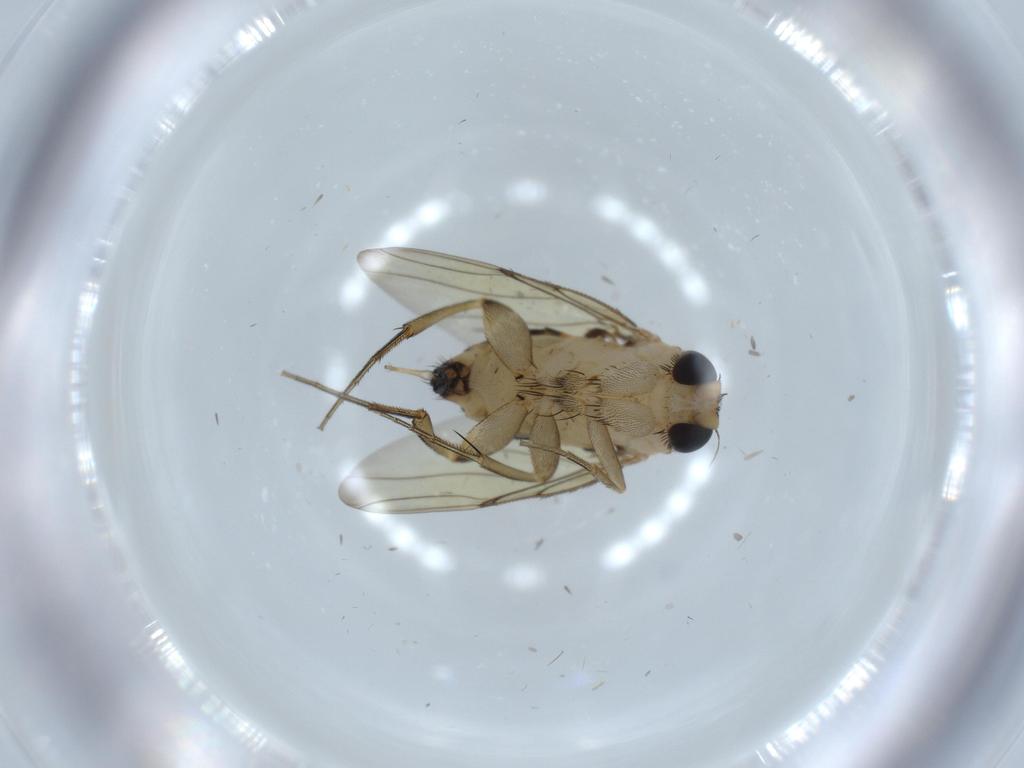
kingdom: Animalia
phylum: Arthropoda
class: Insecta
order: Diptera
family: Phoridae
